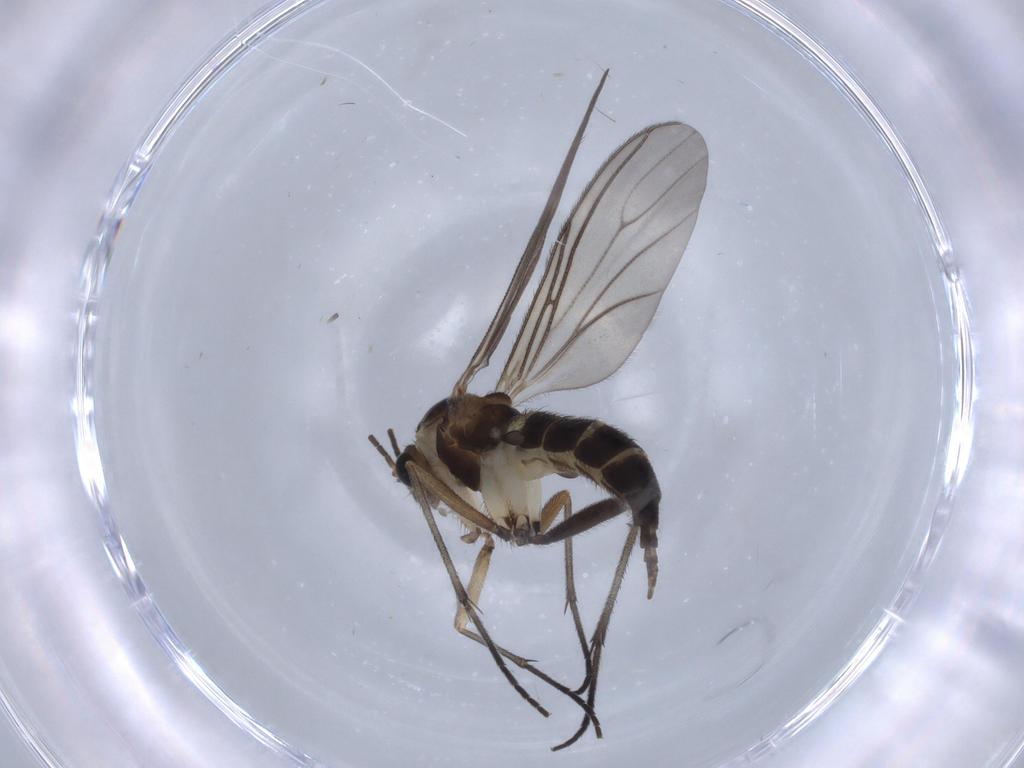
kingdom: Animalia
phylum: Arthropoda
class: Insecta
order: Diptera
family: Sciaridae
